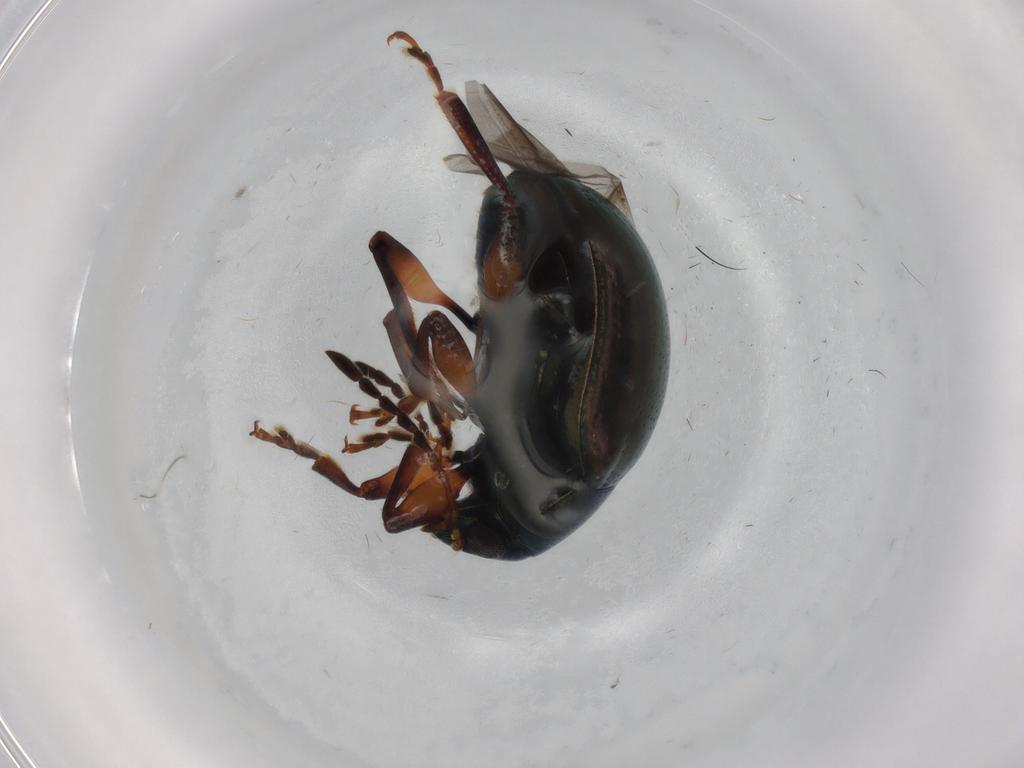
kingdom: Animalia
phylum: Arthropoda
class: Insecta
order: Coleoptera
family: Chrysomelidae
